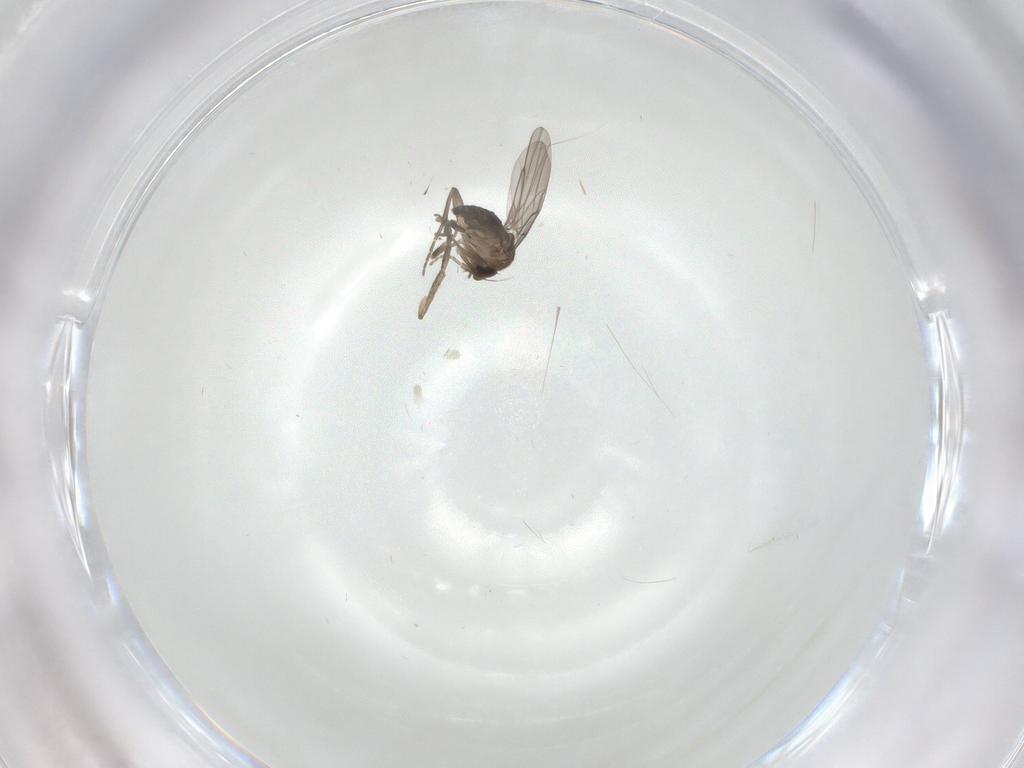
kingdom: Animalia
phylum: Arthropoda
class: Insecta
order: Diptera
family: Phoridae
